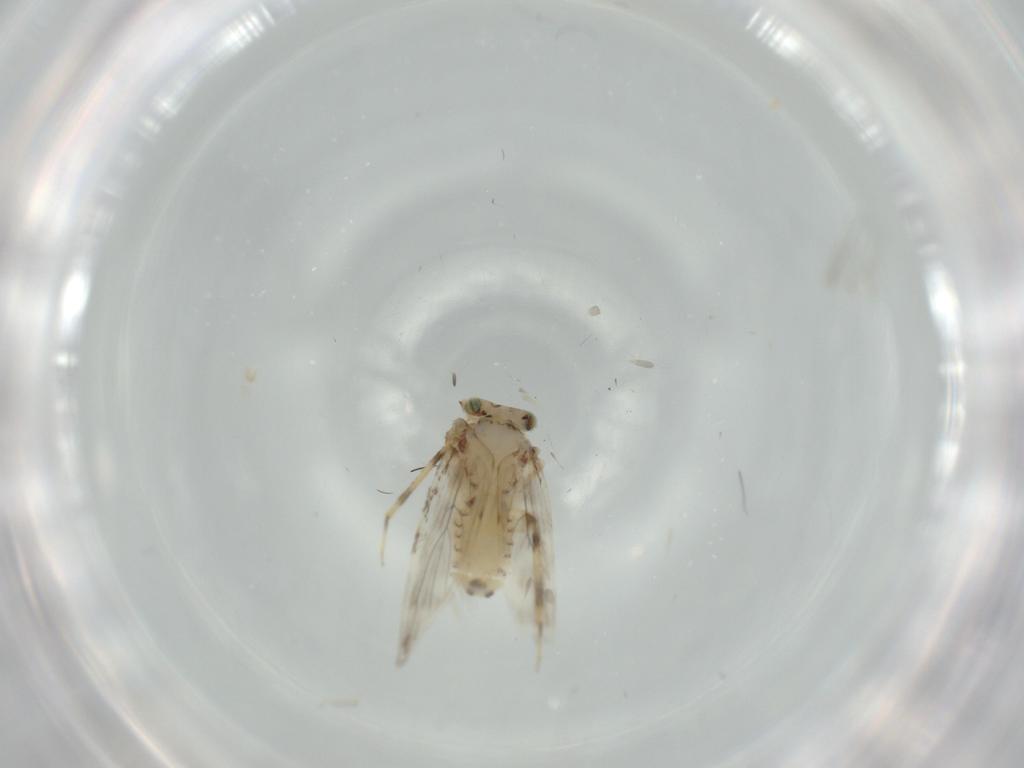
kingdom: Animalia
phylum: Arthropoda
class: Insecta
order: Psocodea
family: Lepidopsocidae
